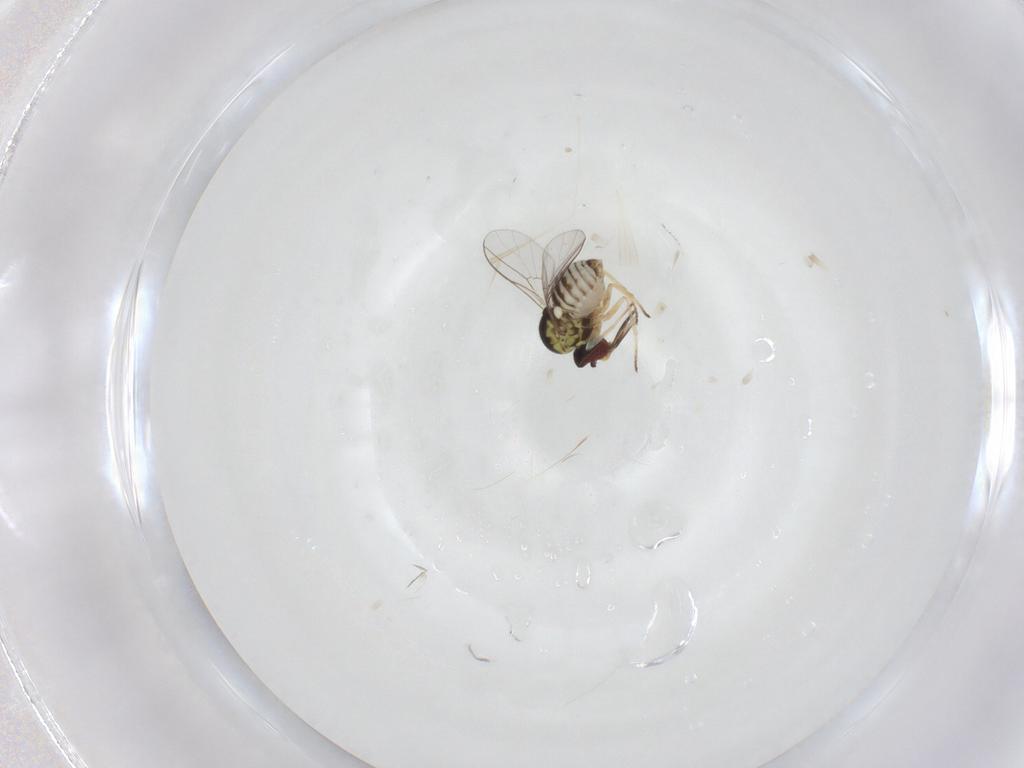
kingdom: Animalia
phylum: Arthropoda
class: Insecta
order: Diptera
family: Bombyliidae
